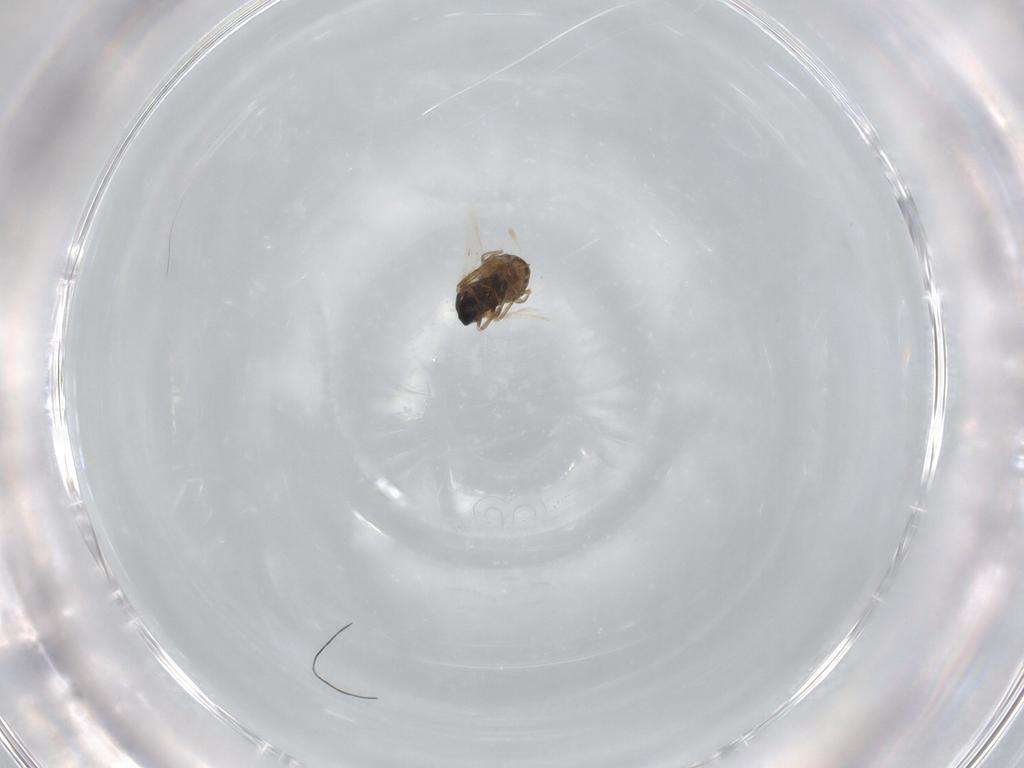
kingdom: Animalia
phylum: Arthropoda
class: Insecta
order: Diptera
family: Cecidomyiidae
